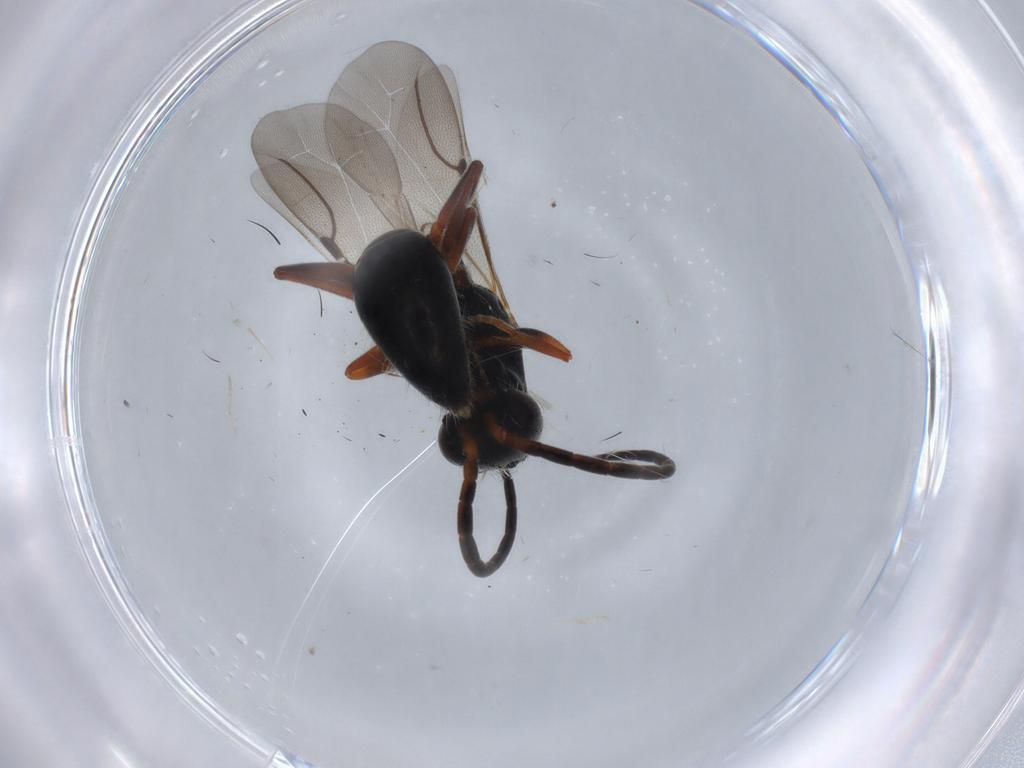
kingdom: Animalia
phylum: Arthropoda
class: Insecta
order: Hymenoptera
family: Bethylidae
